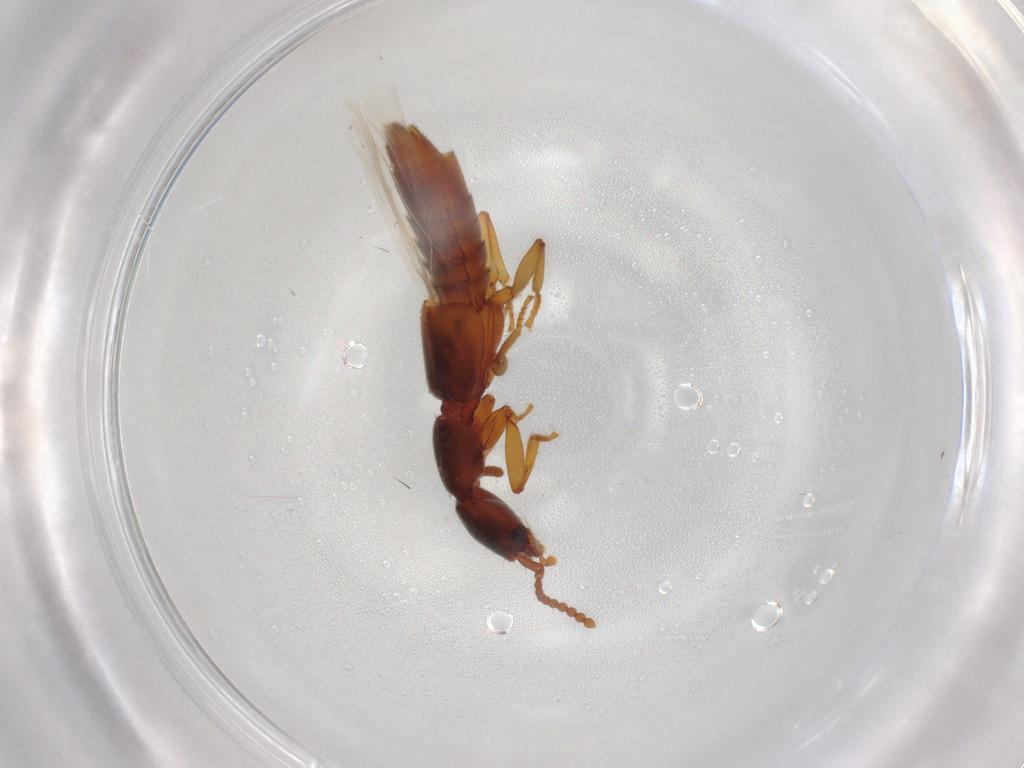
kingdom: Animalia
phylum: Arthropoda
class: Insecta
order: Coleoptera
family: Staphylinidae
